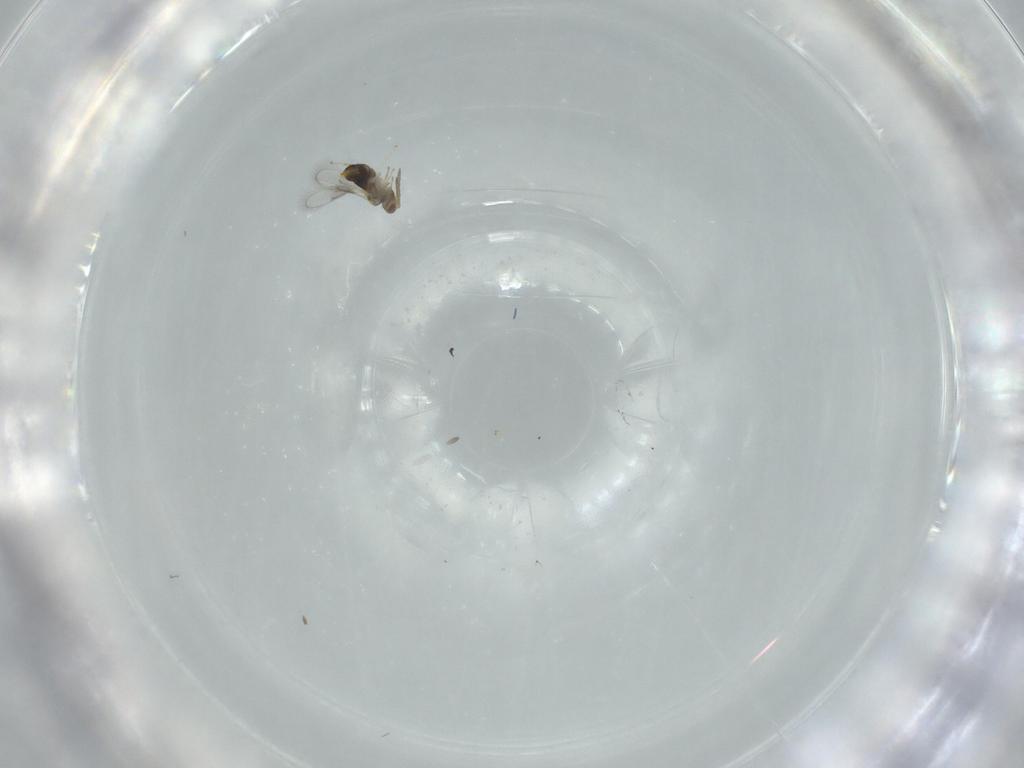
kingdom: Animalia
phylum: Arthropoda
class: Insecta
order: Hymenoptera
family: Aphelinidae
